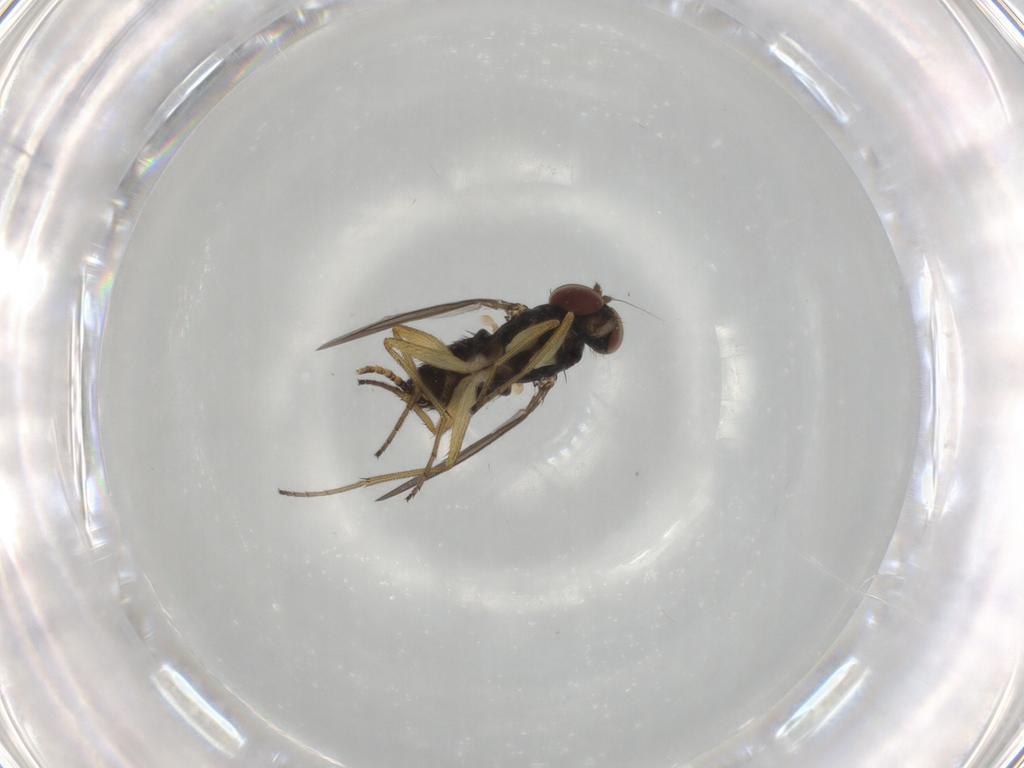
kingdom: Animalia
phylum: Arthropoda
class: Insecta
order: Diptera
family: Dolichopodidae
